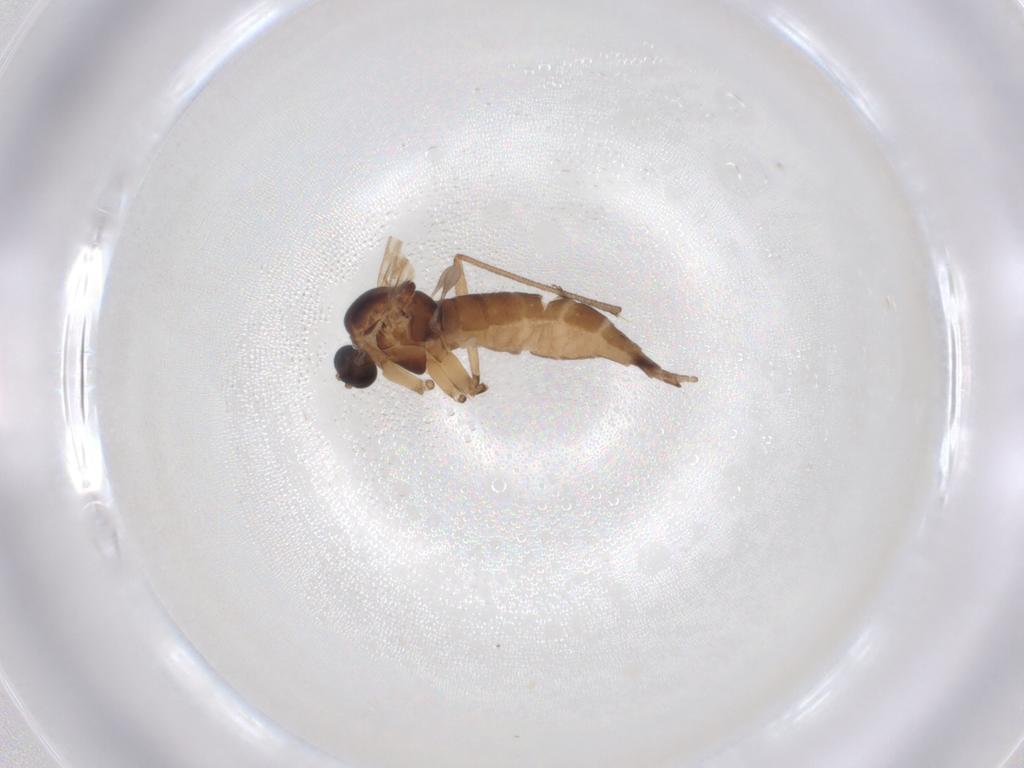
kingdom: Animalia
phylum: Arthropoda
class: Insecta
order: Diptera
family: Sciaridae
